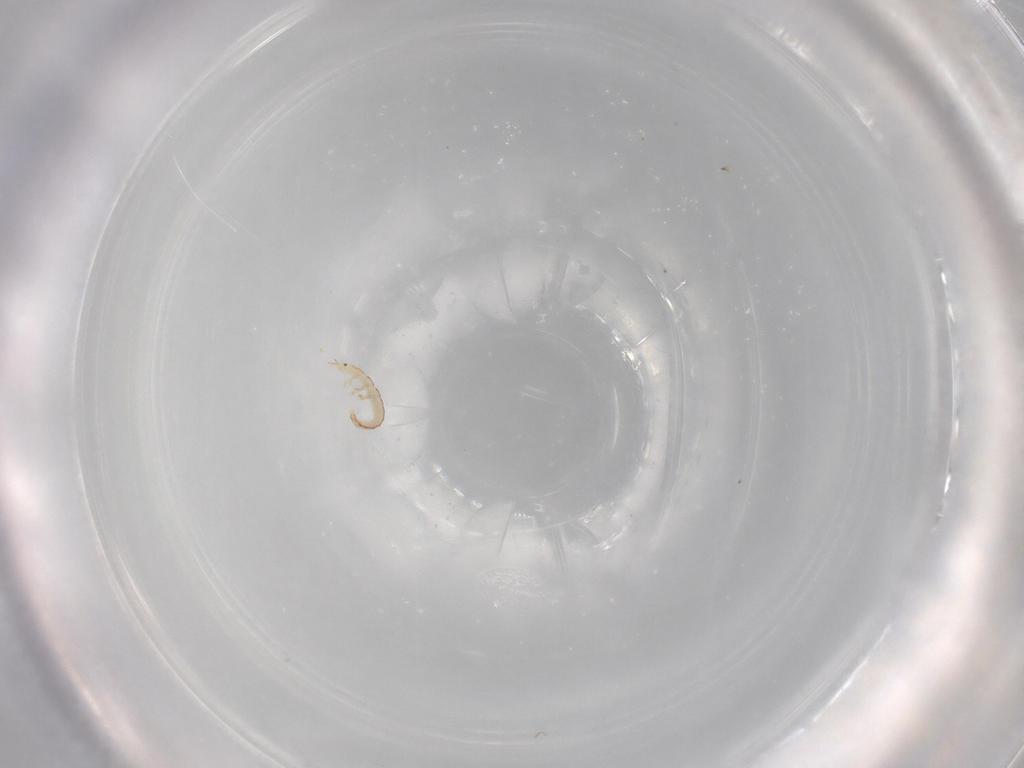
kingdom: Animalia
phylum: Arthropoda
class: Insecta
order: Neuroptera
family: Mantispidae
